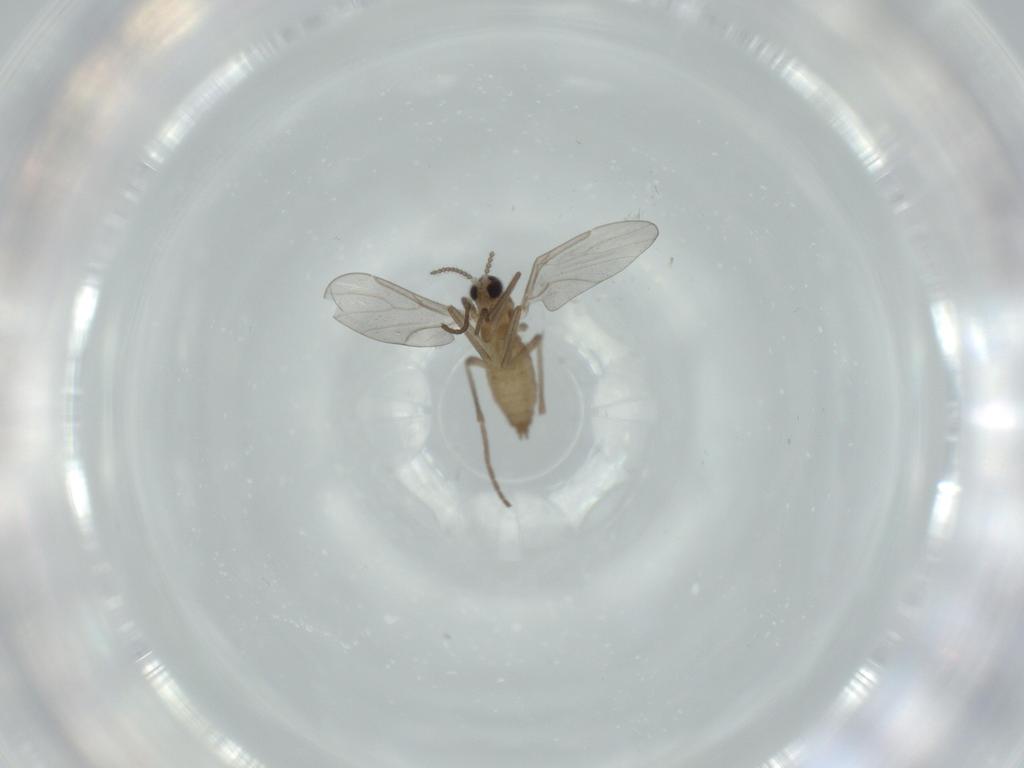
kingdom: Animalia
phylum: Arthropoda
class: Insecta
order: Diptera
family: Cecidomyiidae
